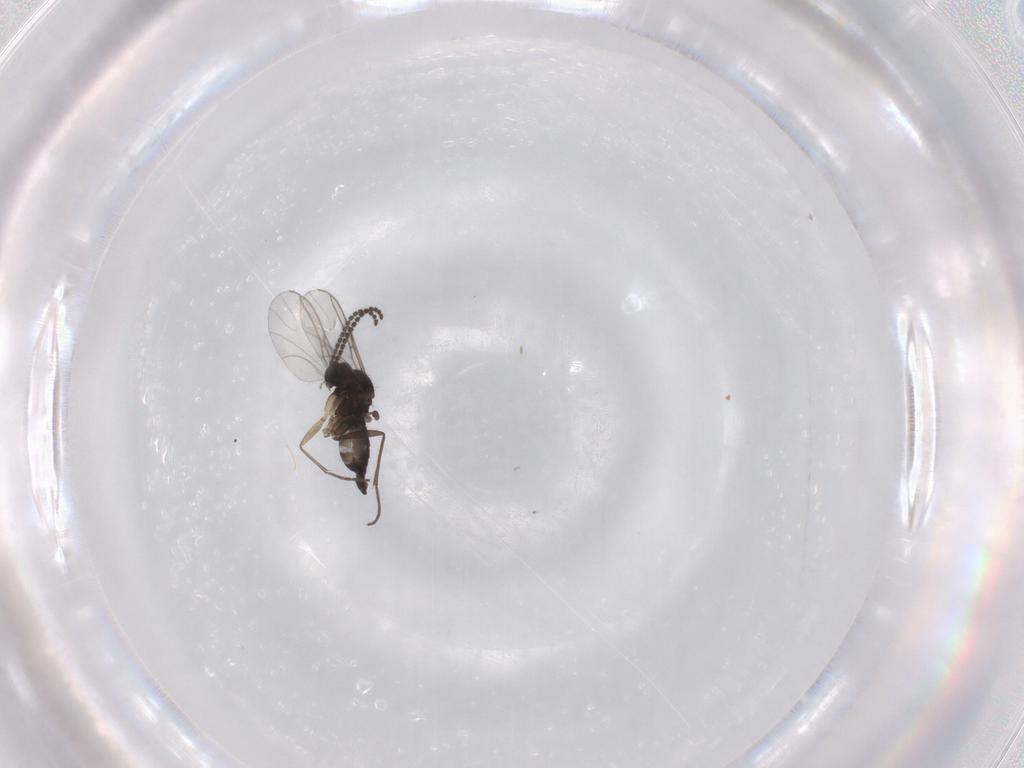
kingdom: Animalia
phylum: Arthropoda
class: Insecta
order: Diptera
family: Sciaridae
